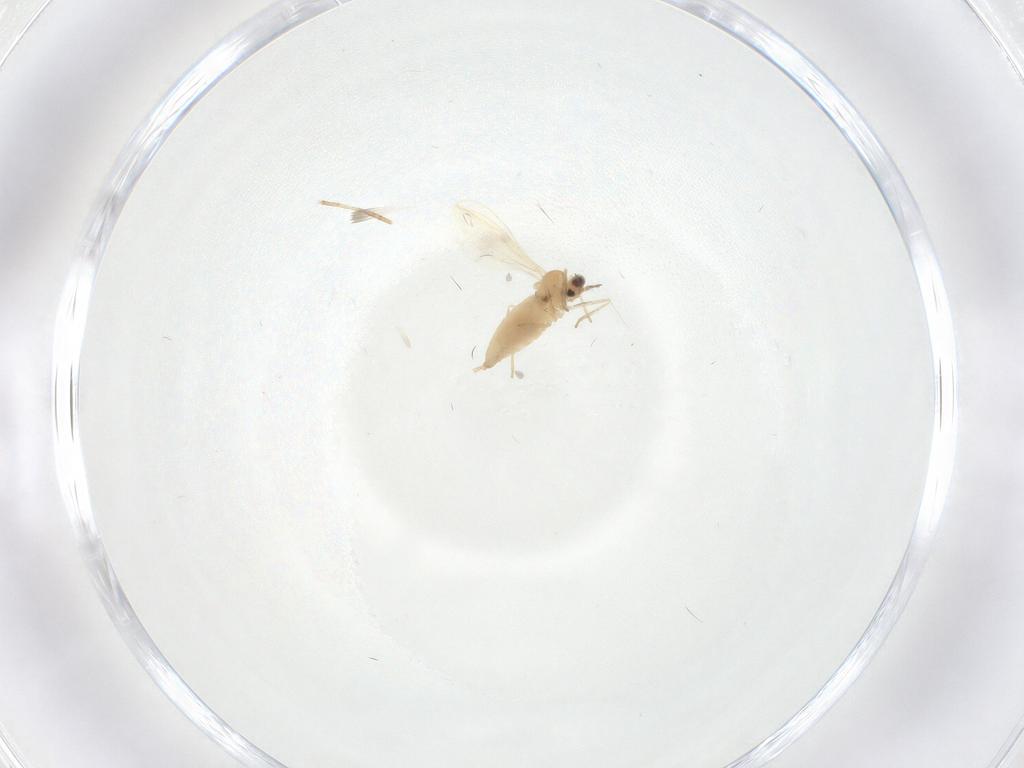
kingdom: Animalia
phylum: Arthropoda
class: Insecta
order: Diptera
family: Cecidomyiidae
